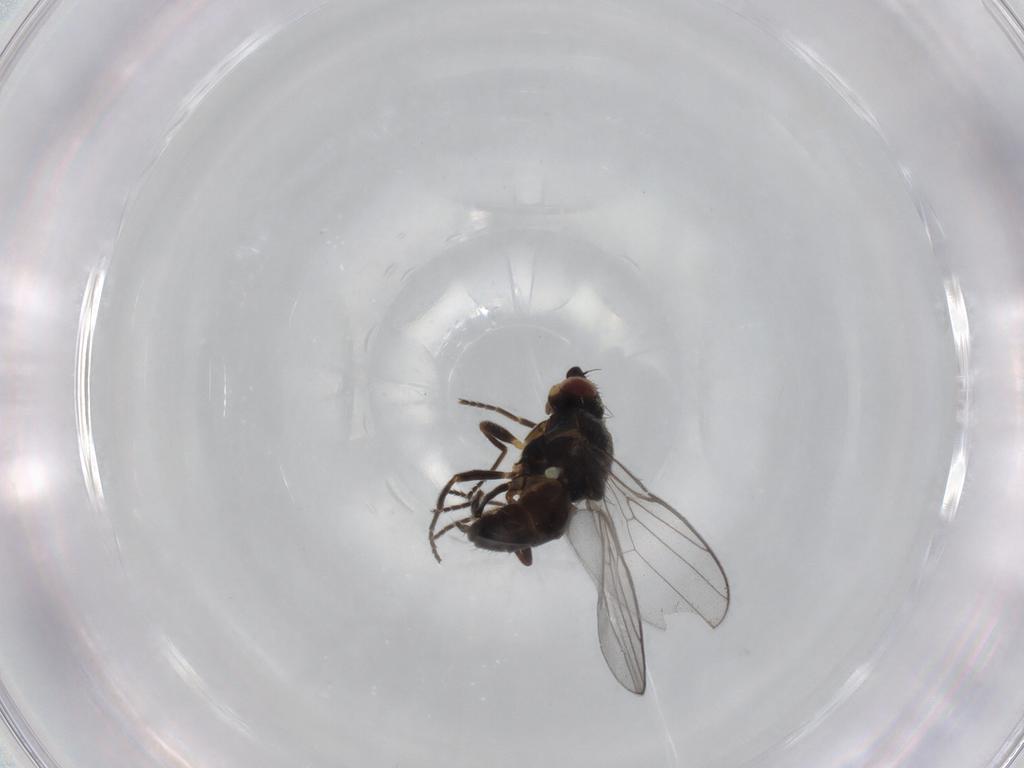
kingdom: Animalia
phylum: Arthropoda
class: Insecta
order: Diptera
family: Chloropidae
